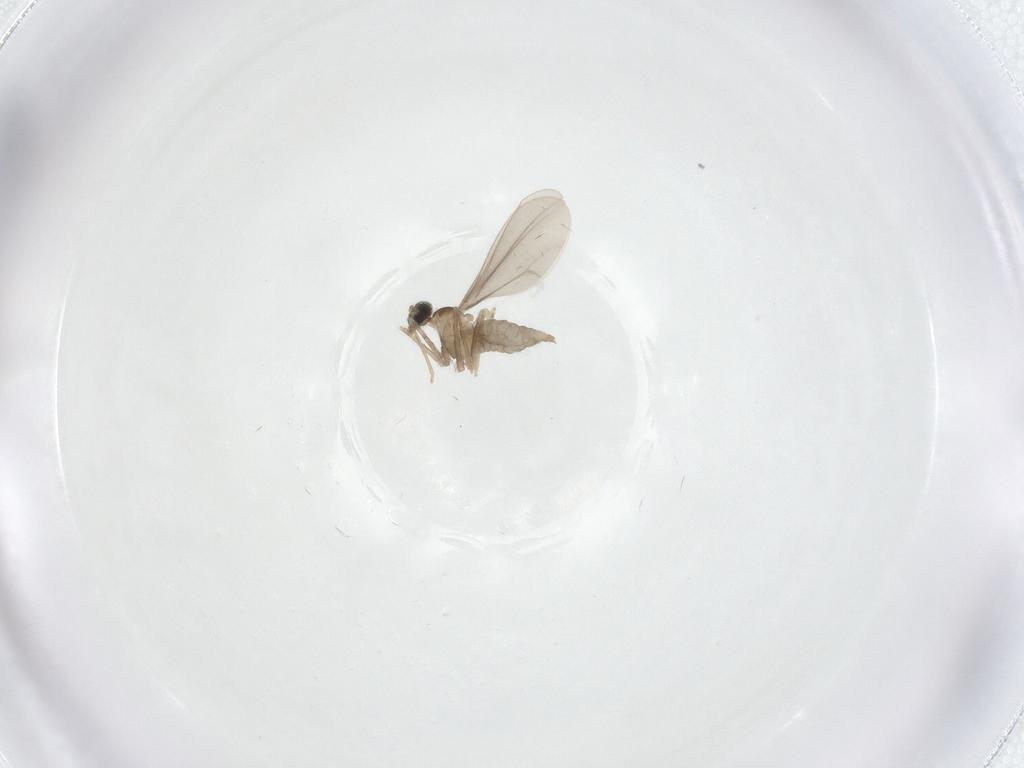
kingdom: Animalia
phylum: Arthropoda
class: Insecta
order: Diptera
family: Cecidomyiidae
